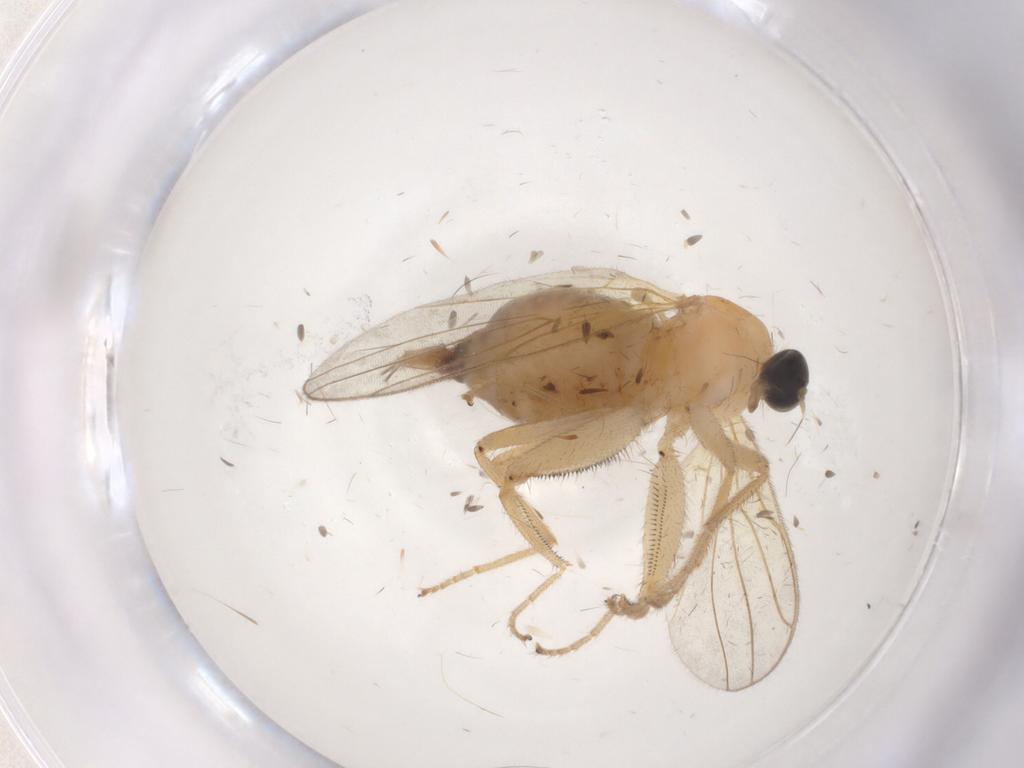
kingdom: Animalia
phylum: Arthropoda
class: Insecta
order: Diptera
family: Hybotidae
